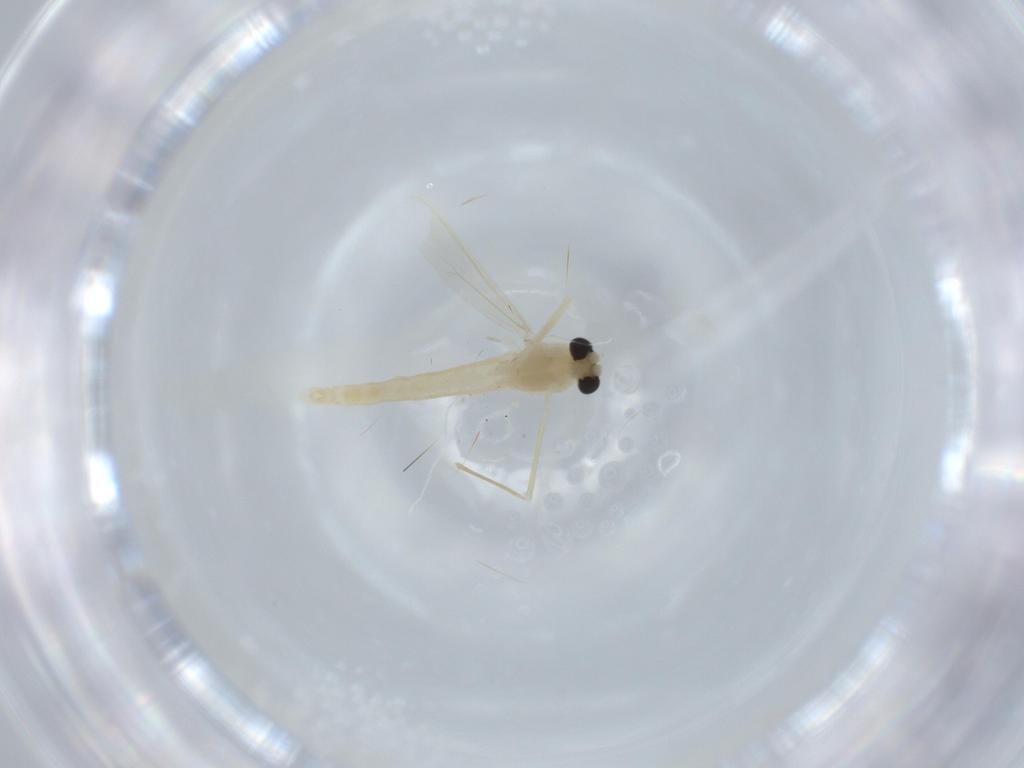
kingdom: Animalia
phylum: Arthropoda
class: Insecta
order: Diptera
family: Chironomidae
